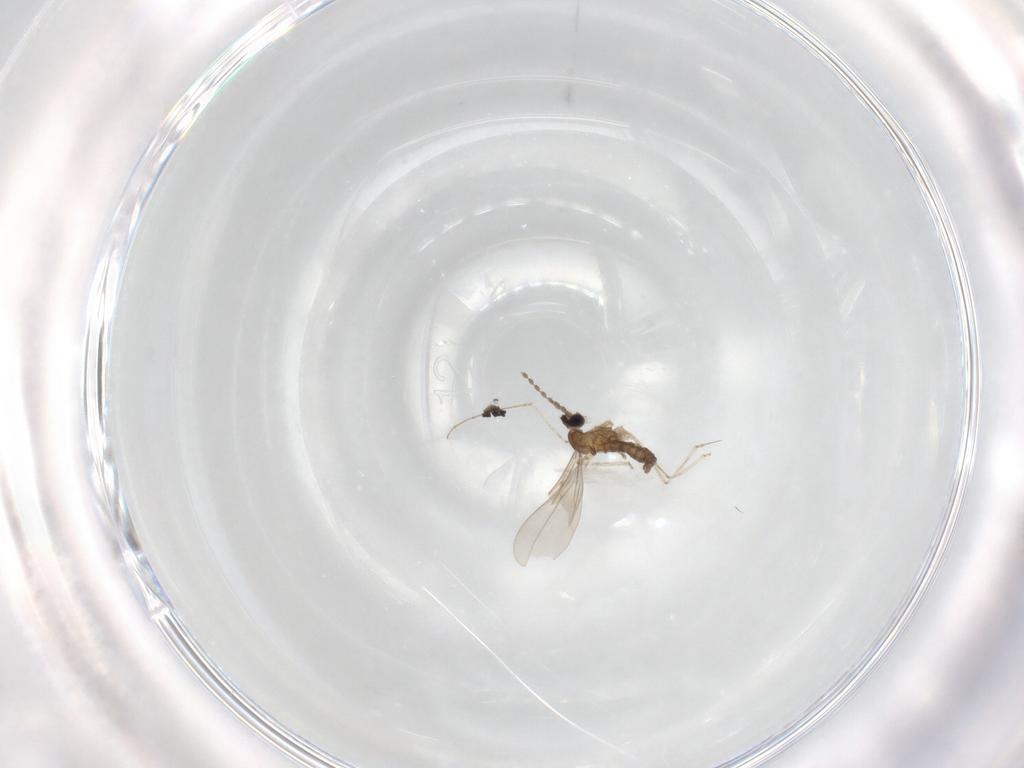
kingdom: Animalia
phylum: Arthropoda
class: Insecta
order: Diptera
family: Cecidomyiidae
